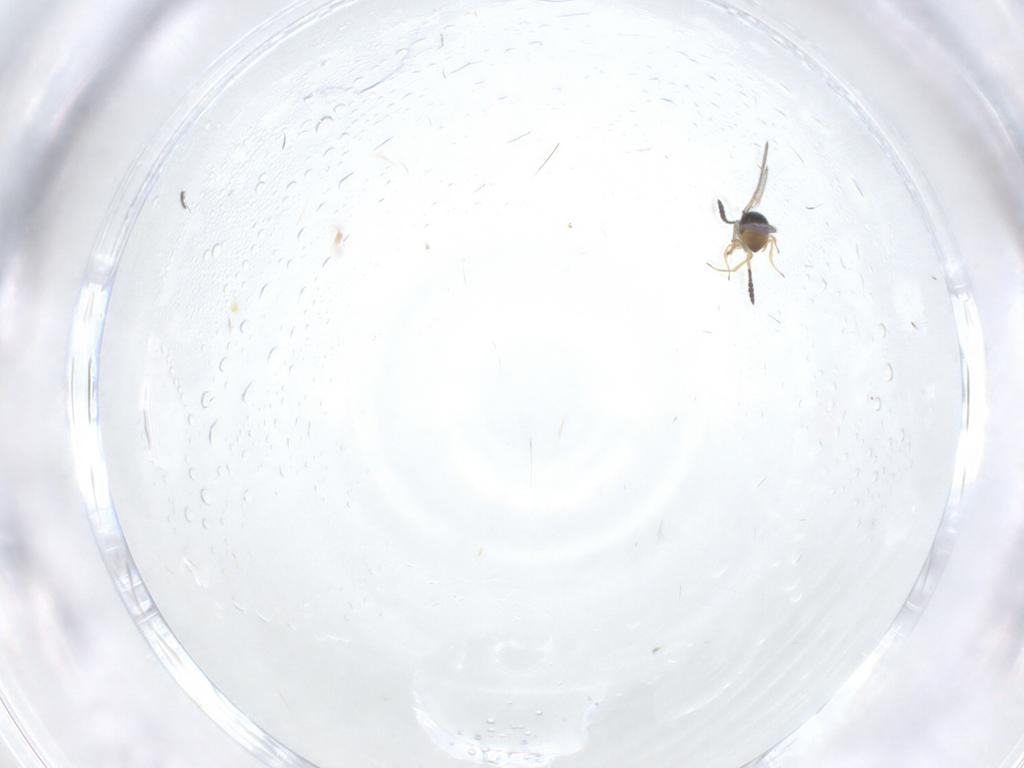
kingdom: Animalia
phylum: Arthropoda
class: Insecta
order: Hymenoptera
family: Scelionidae
